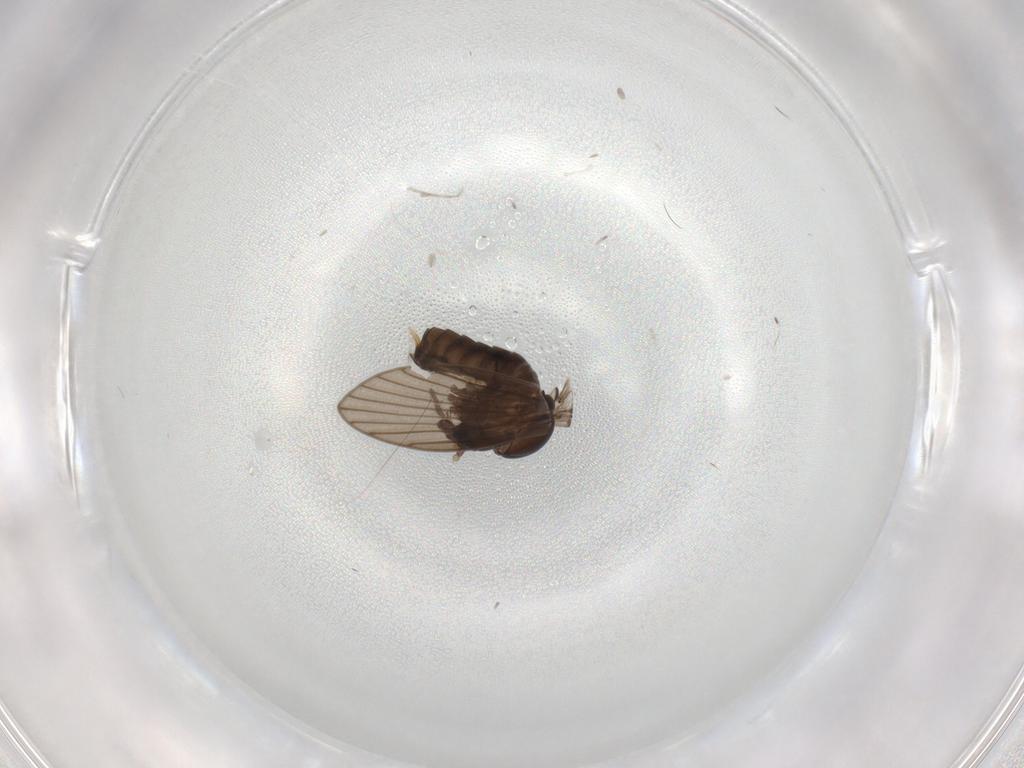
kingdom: Animalia
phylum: Arthropoda
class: Insecta
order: Diptera
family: Psychodidae
